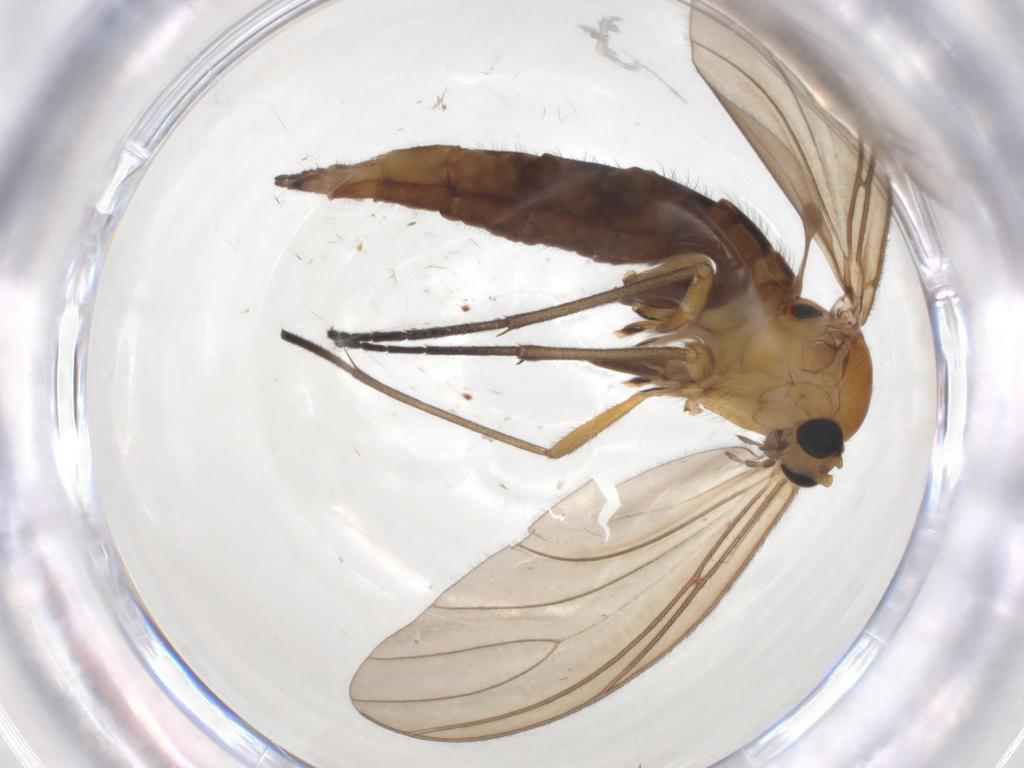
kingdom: Animalia
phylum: Arthropoda
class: Insecta
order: Diptera
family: Sciaridae
